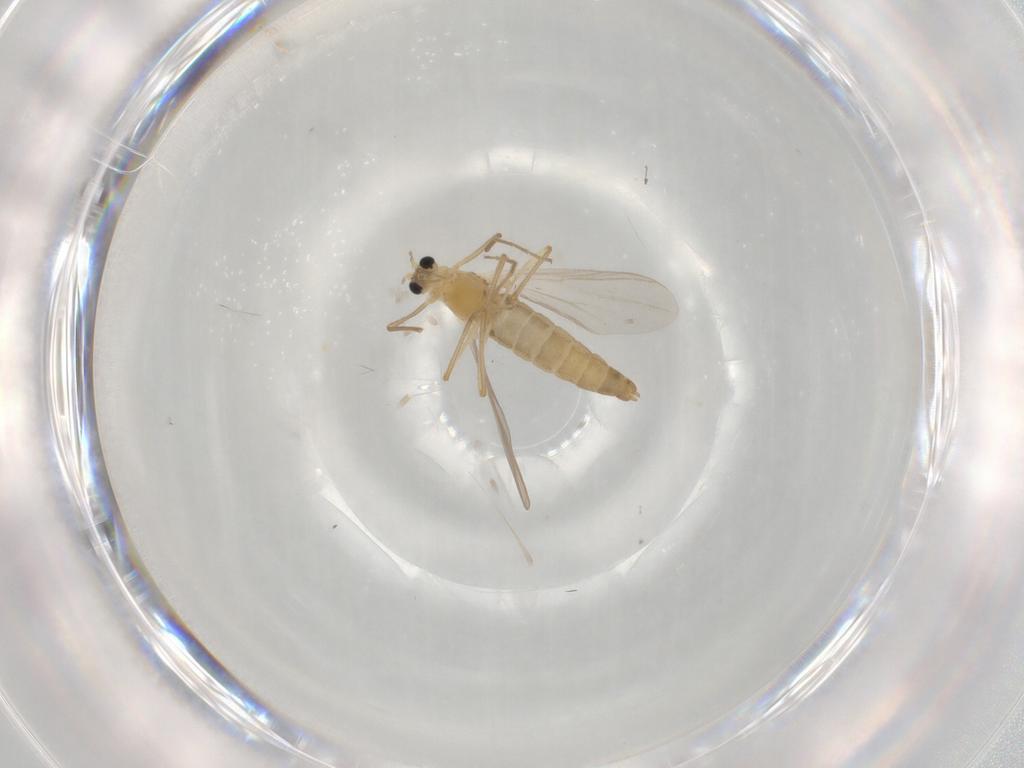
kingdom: Animalia
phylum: Arthropoda
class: Insecta
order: Diptera
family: Chironomidae
